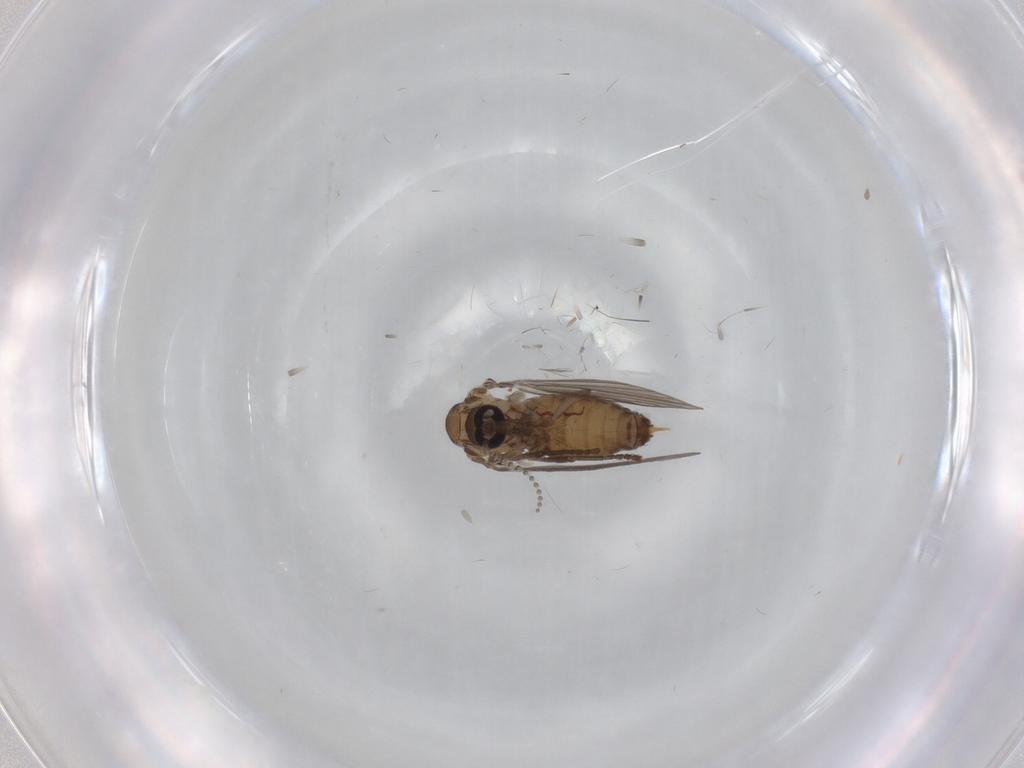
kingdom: Animalia
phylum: Arthropoda
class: Insecta
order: Diptera
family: Psychodidae
